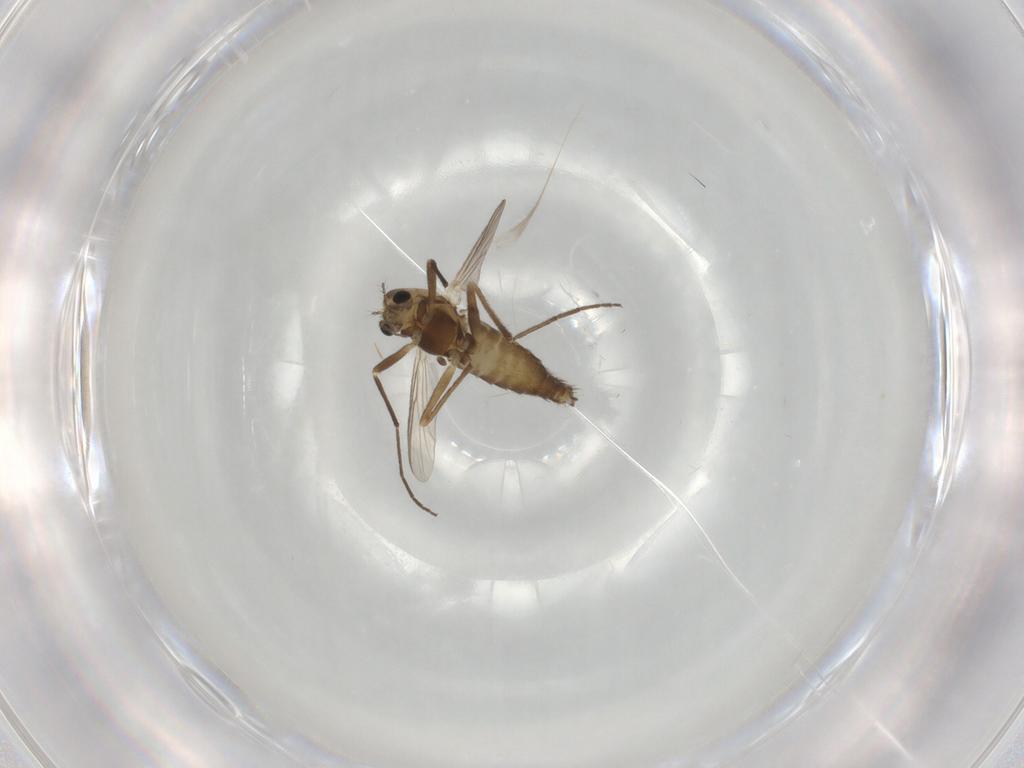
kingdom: Animalia
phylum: Arthropoda
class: Insecta
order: Diptera
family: Chironomidae
